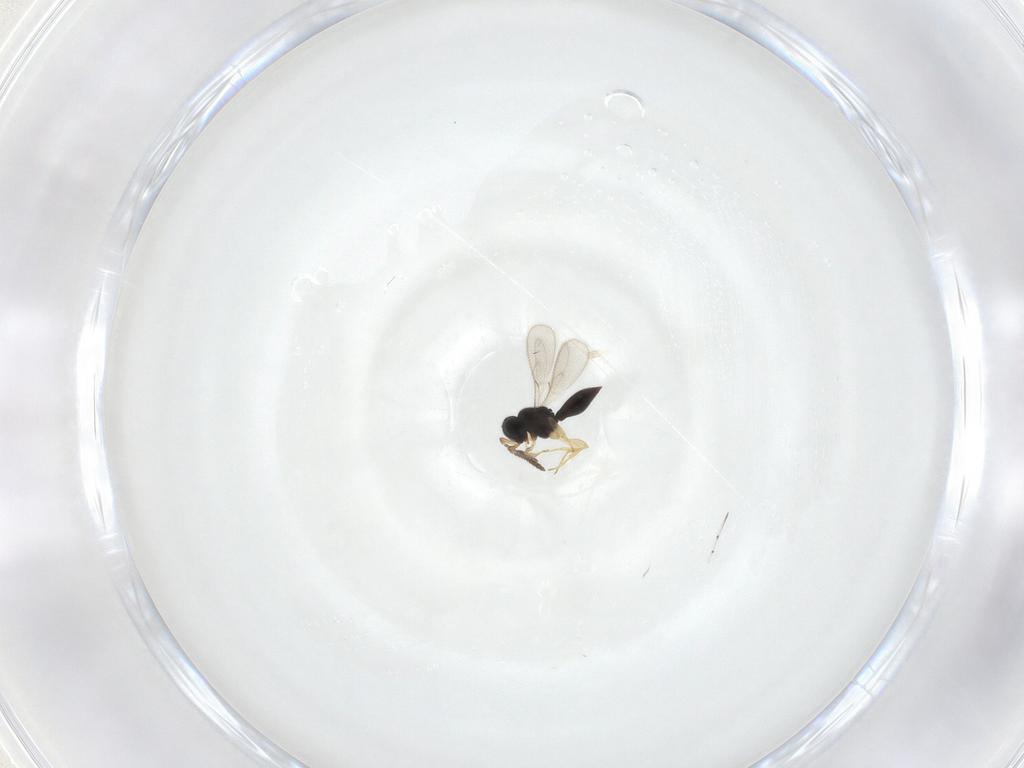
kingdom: Animalia
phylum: Arthropoda
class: Insecta
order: Hymenoptera
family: Scelionidae
